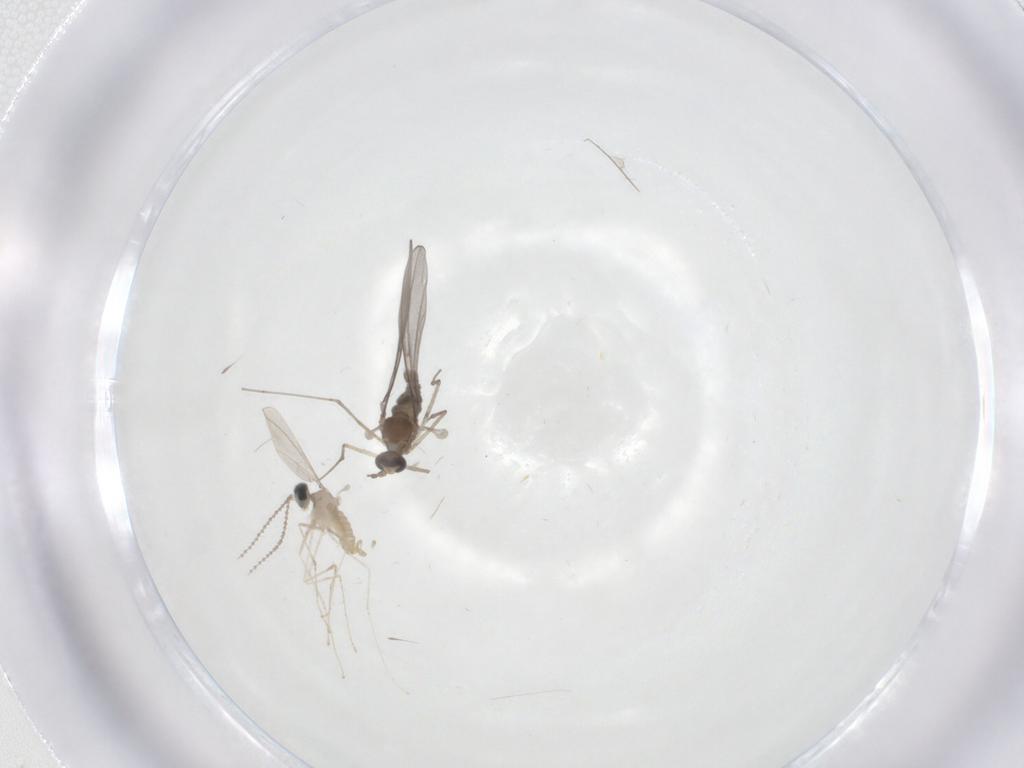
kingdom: Animalia
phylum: Arthropoda
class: Insecta
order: Diptera
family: Cecidomyiidae
